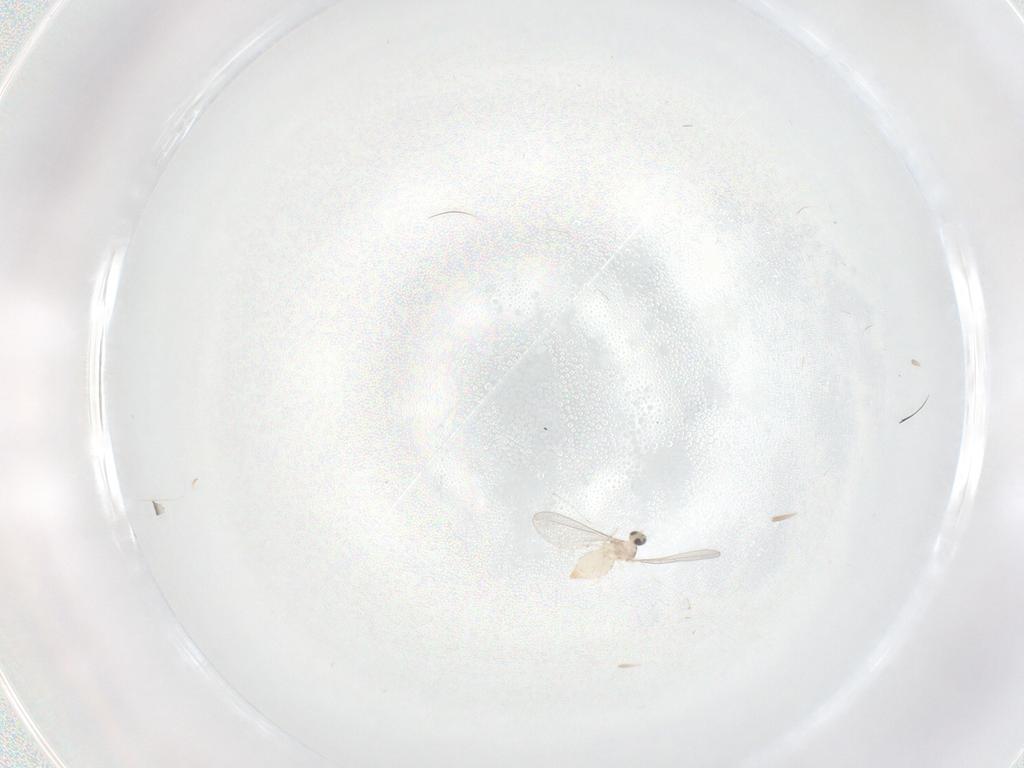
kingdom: Animalia
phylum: Arthropoda
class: Insecta
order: Diptera
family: Cecidomyiidae
